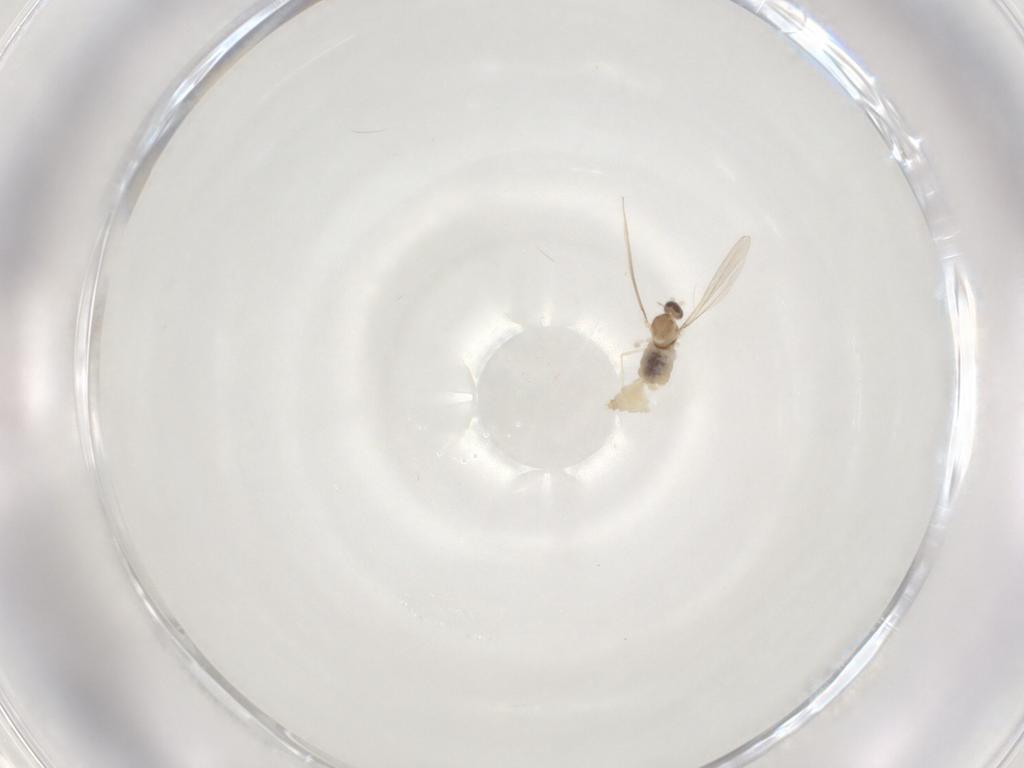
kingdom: Animalia
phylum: Arthropoda
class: Insecta
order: Diptera
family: Cecidomyiidae
